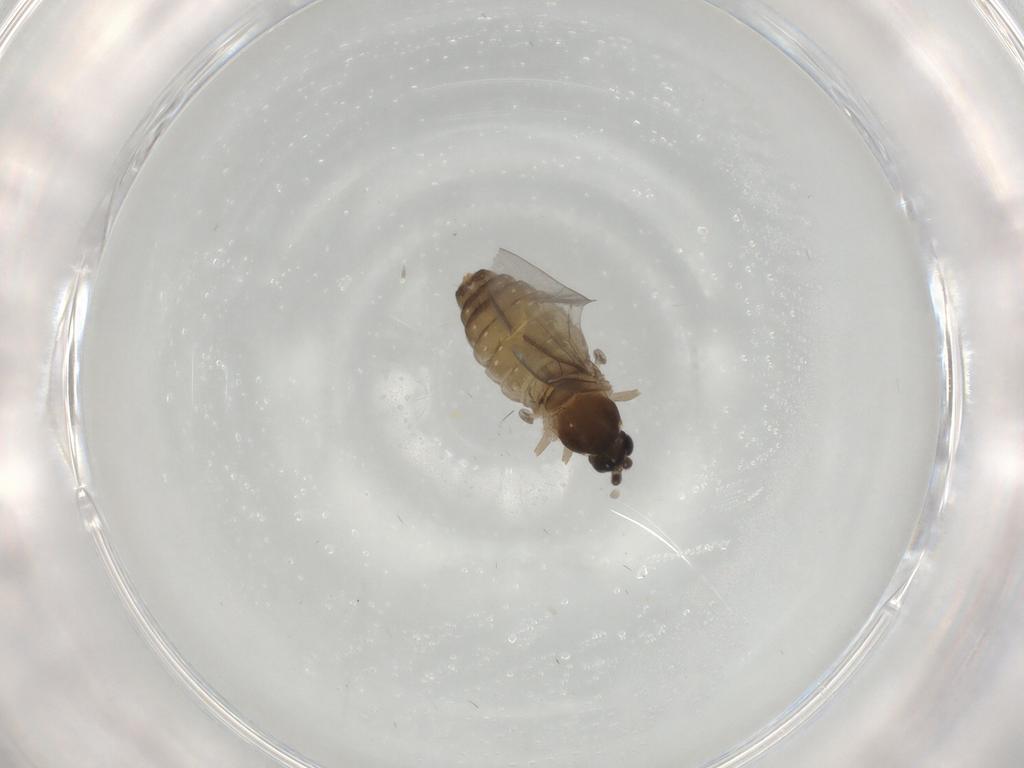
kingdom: Animalia
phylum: Arthropoda
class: Insecta
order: Diptera
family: Cecidomyiidae
